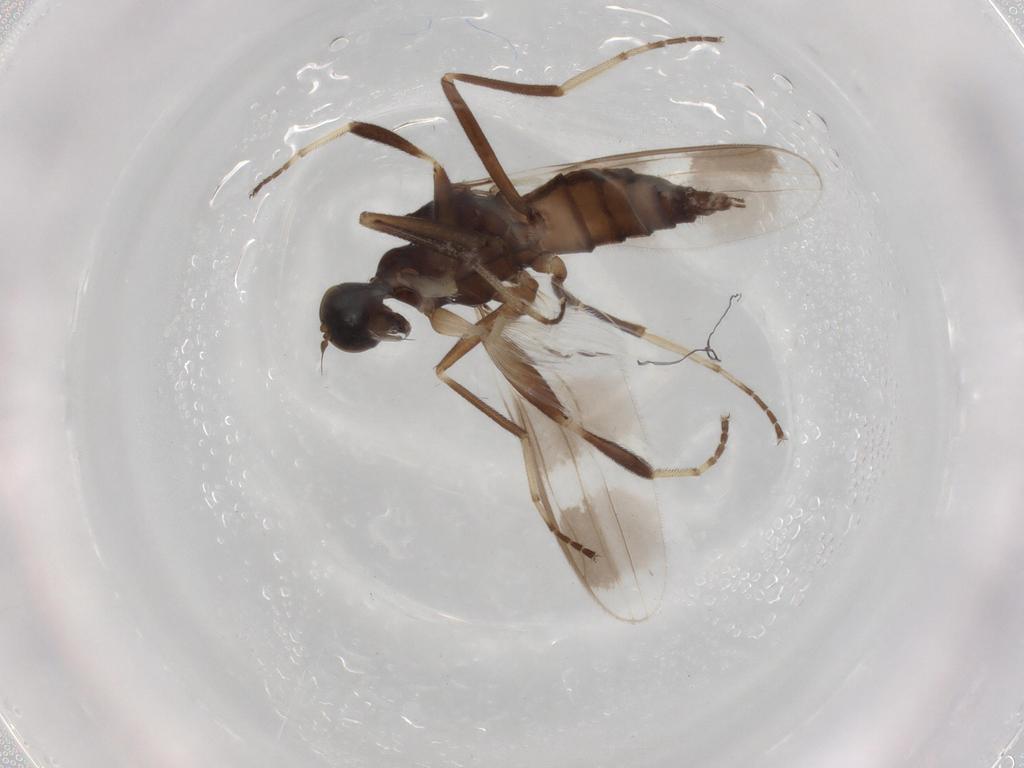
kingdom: Animalia
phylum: Arthropoda
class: Insecta
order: Diptera
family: Hybotidae
